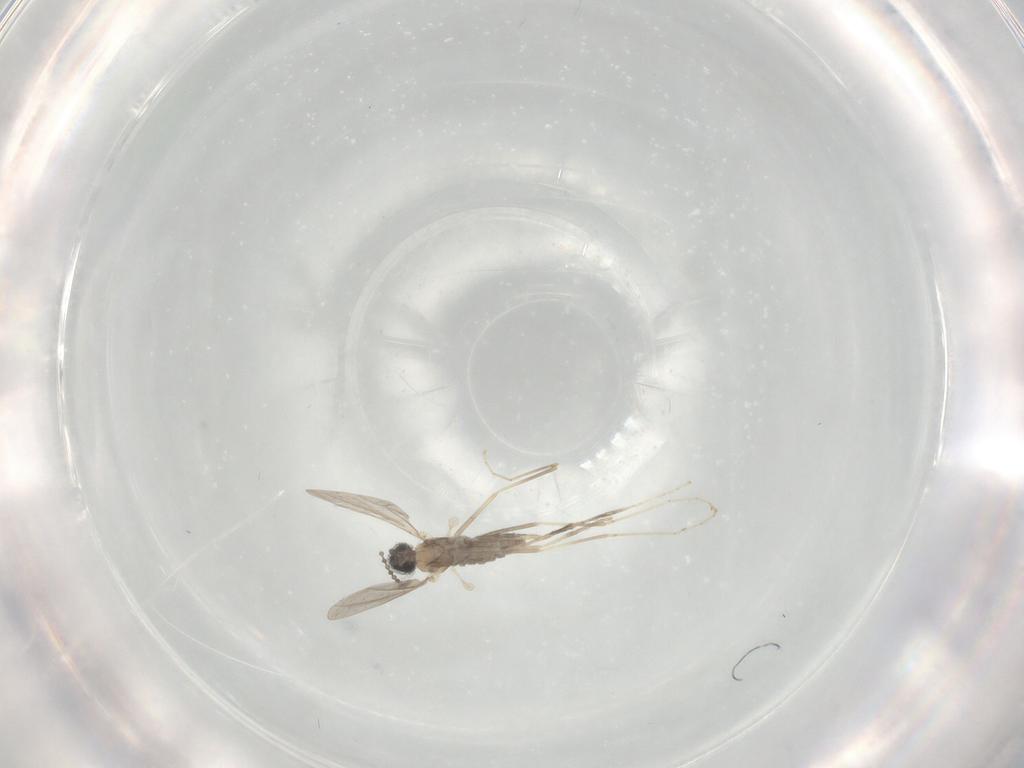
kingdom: Animalia
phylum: Arthropoda
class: Insecta
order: Diptera
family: Cecidomyiidae
